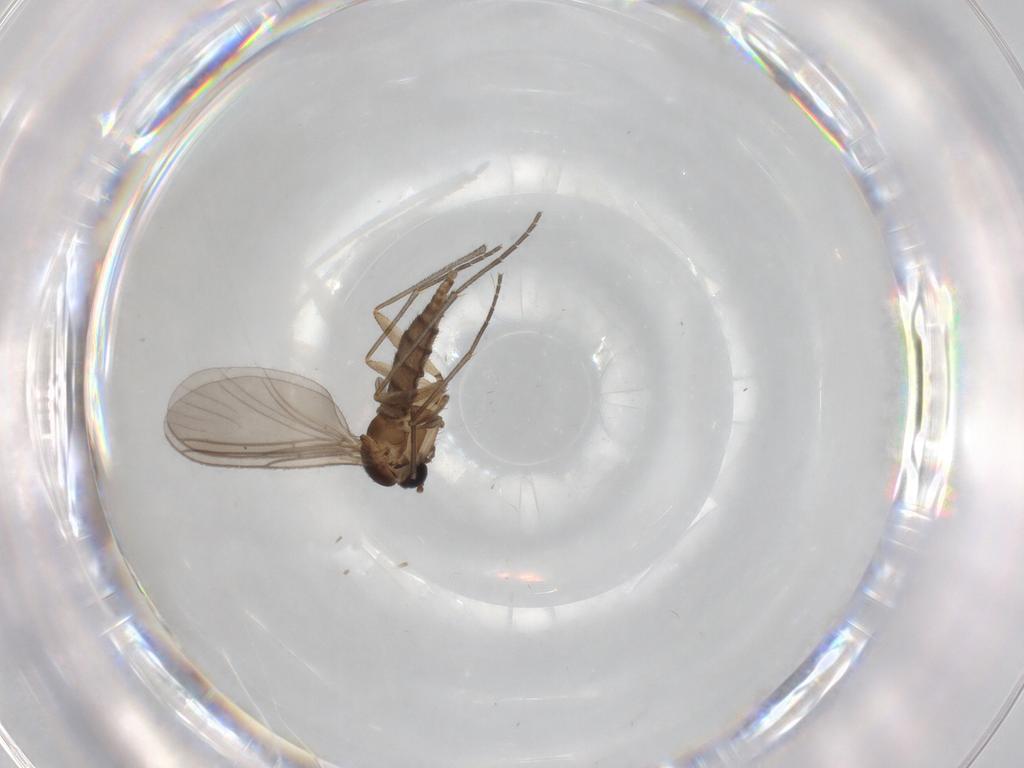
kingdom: Animalia
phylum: Arthropoda
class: Insecta
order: Diptera
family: Sciaridae
